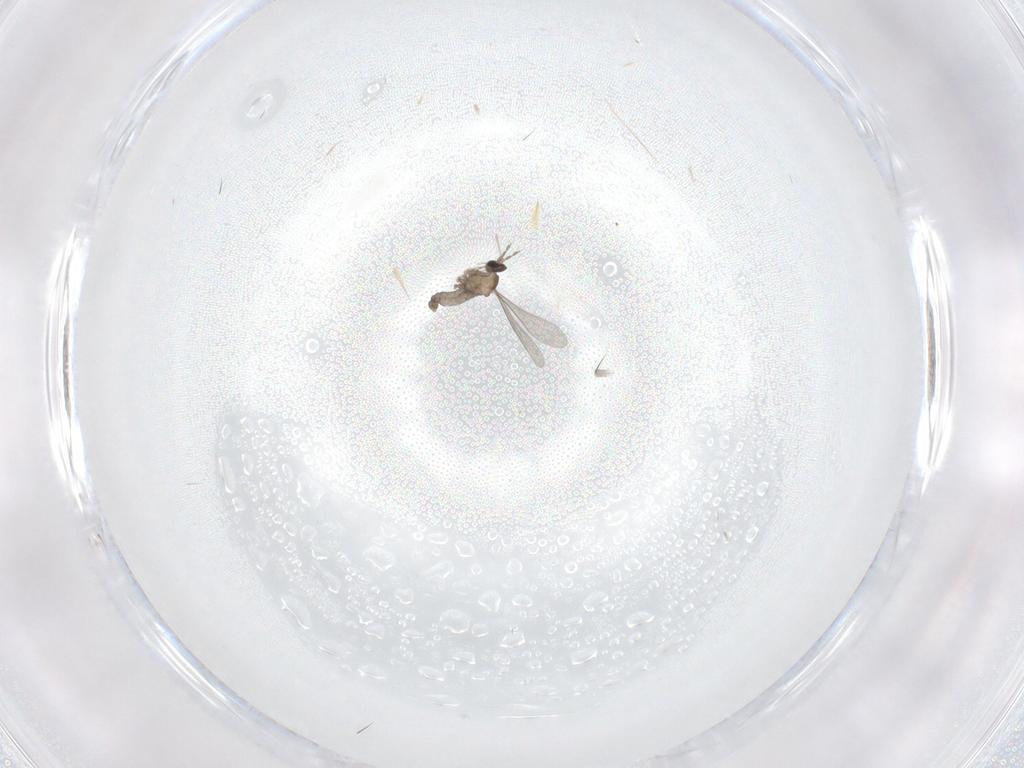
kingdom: Animalia
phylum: Arthropoda
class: Insecta
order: Diptera
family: Cecidomyiidae
